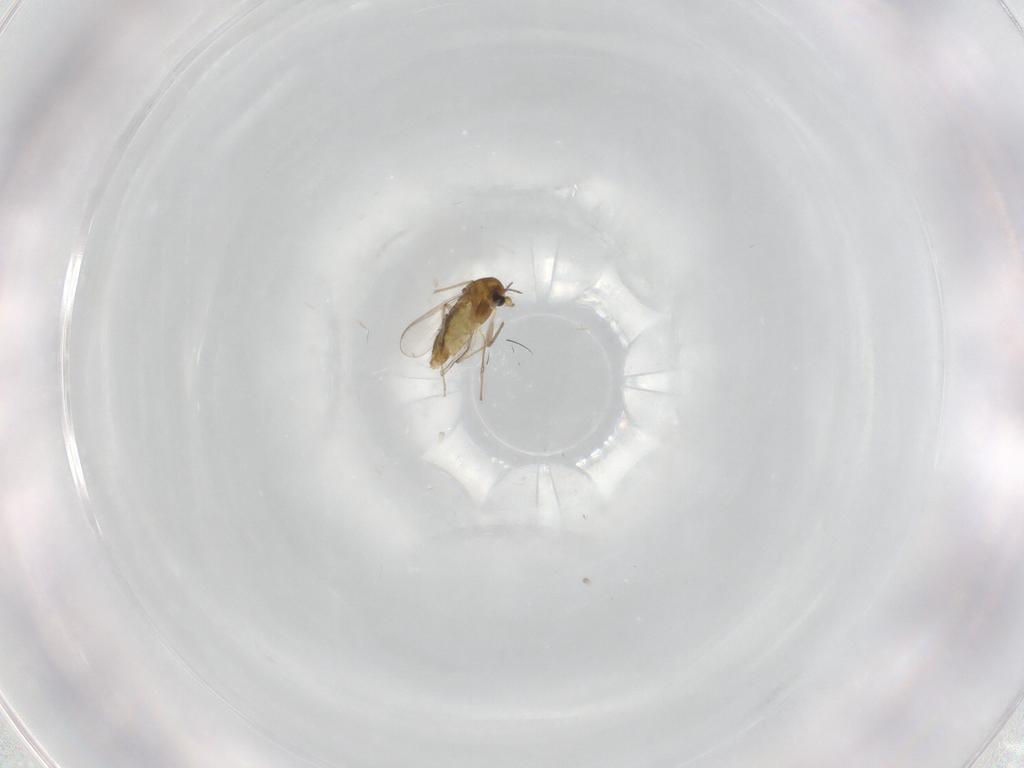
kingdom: Animalia
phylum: Arthropoda
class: Insecta
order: Diptera
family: Chironomidae
